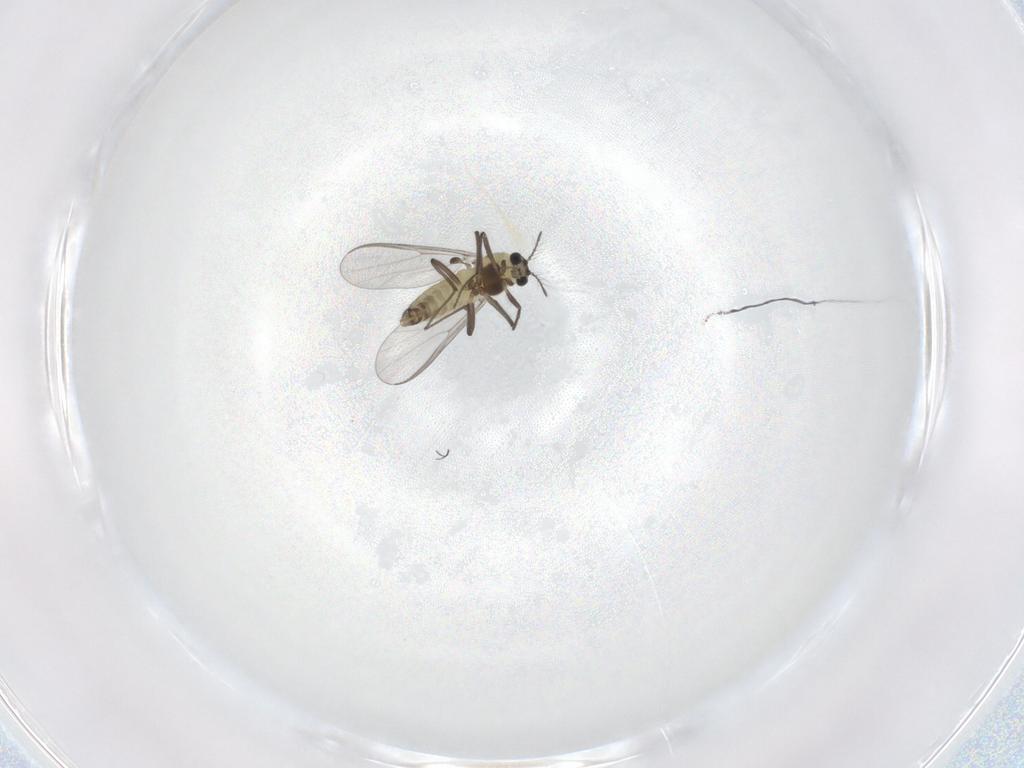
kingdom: Animalia
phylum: Arthropoda
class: Insecta
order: Diptera
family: Chironomidae
